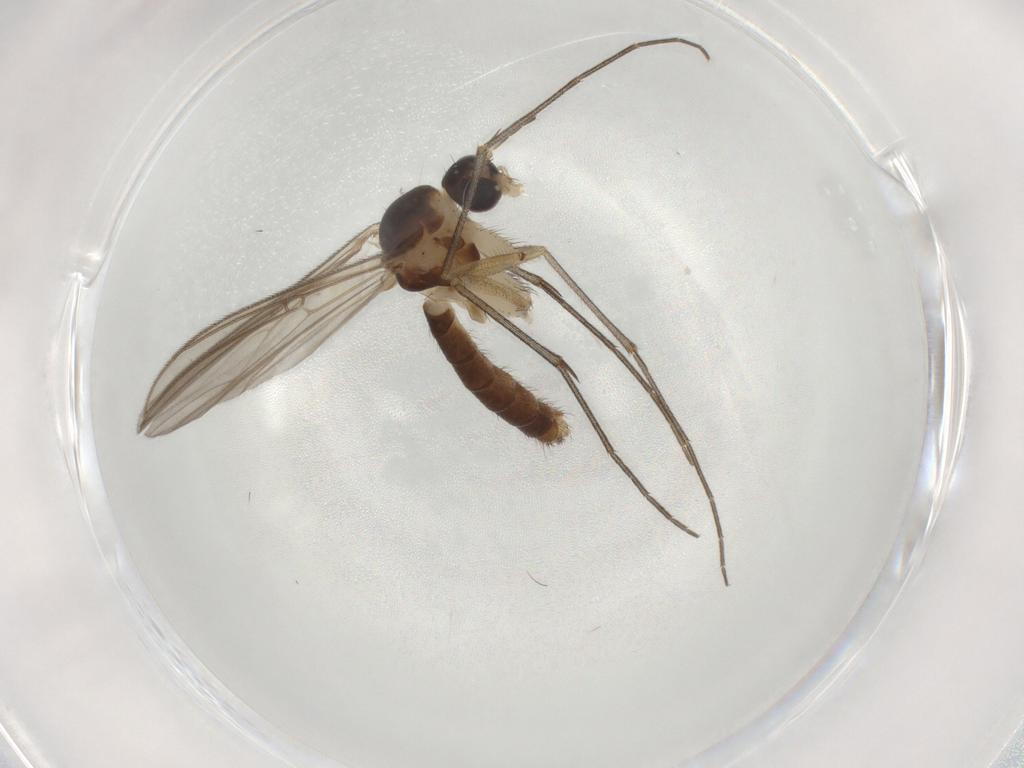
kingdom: Animalia
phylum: Arthropoda
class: Insecta
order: Diptera
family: Mycetophilidae
